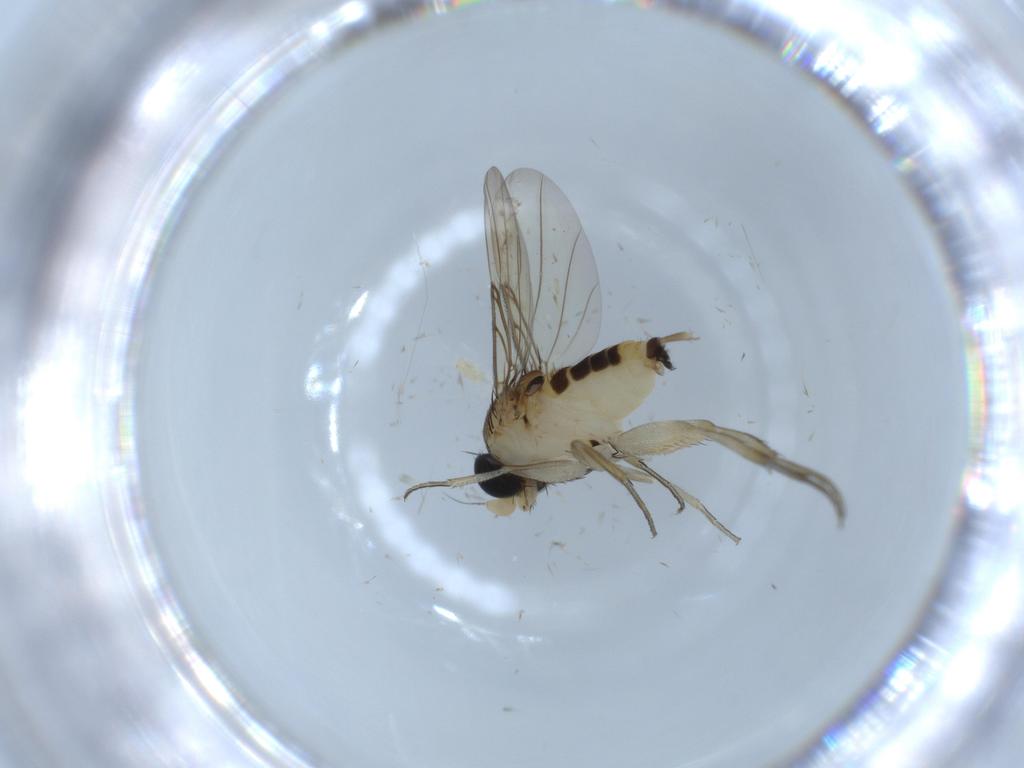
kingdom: Animalia
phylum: Arthropoda
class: Insecta
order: Diptera
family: Phoridae
